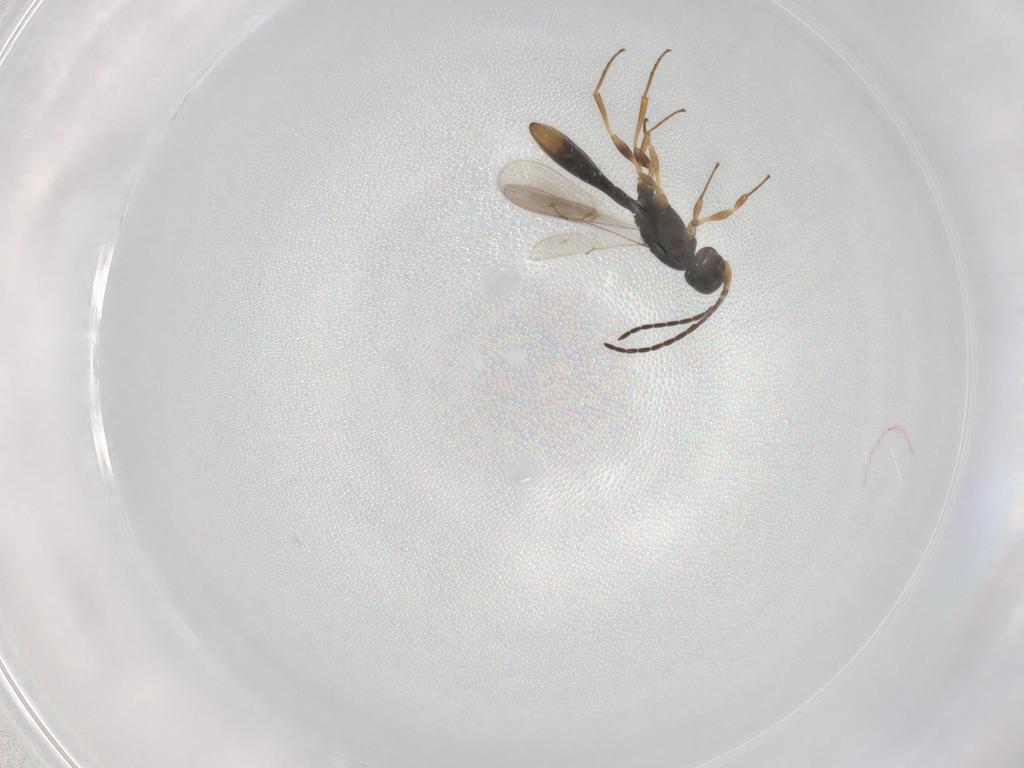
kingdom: Animalia
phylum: Arthropoda
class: Insecta
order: Hymenoptera
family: Scelionidae
